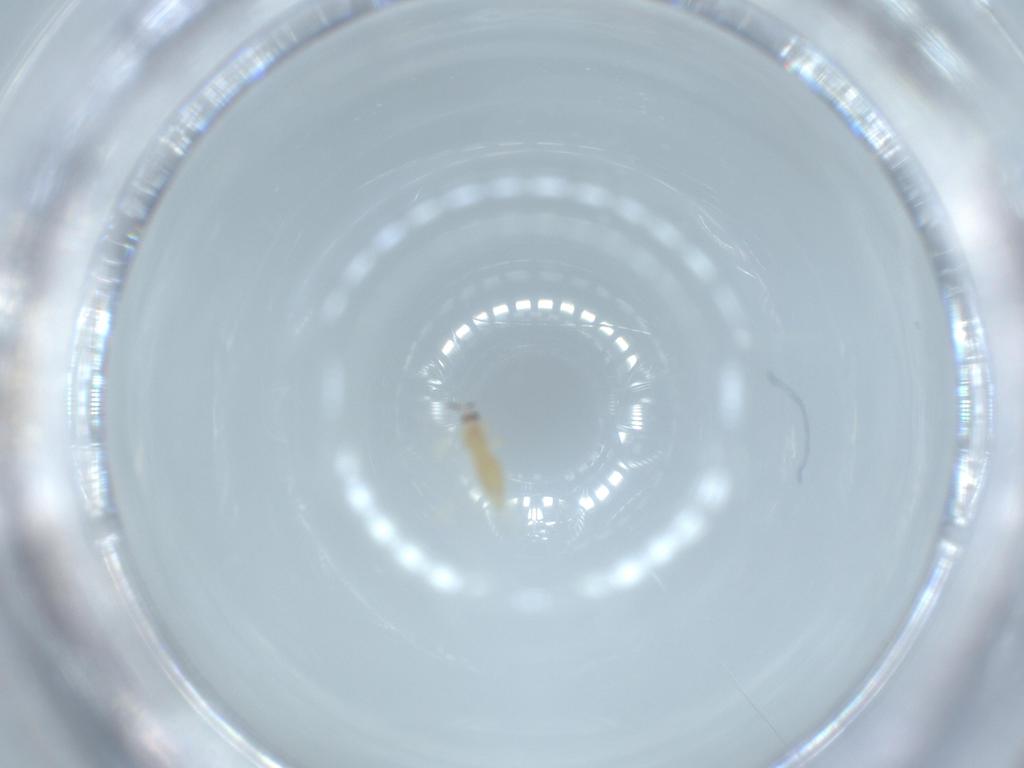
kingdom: Animalia
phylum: Arthropoda
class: Insecta
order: Thysanoptera
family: Melanthripidae
